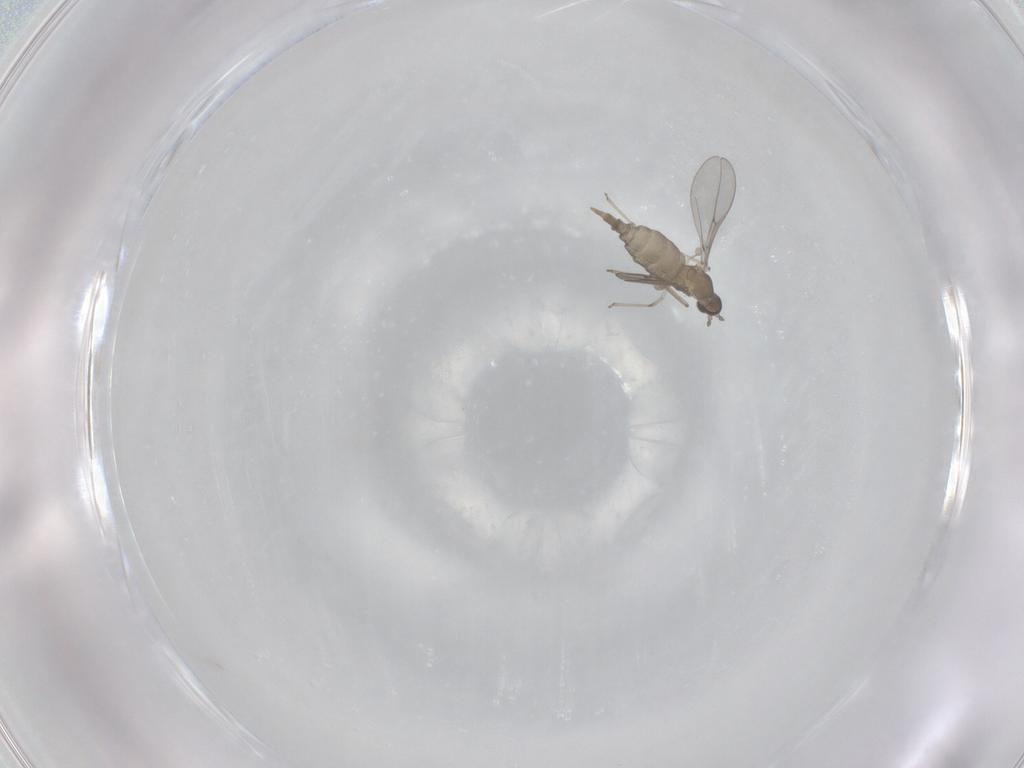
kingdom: Animalia
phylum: Arthropoda
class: Insecta
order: Diptera
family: Cecidomyiidae
